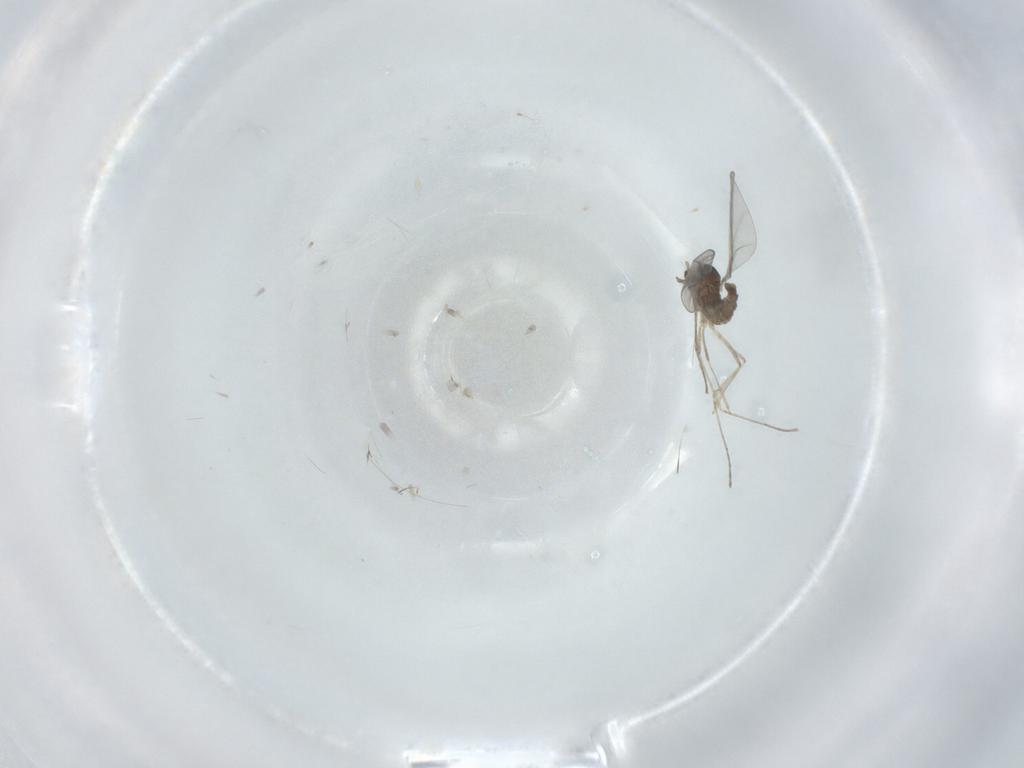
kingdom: Animalia
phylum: Arthropoda
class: Insecta
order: Diptera
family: Cecidomyiidae
